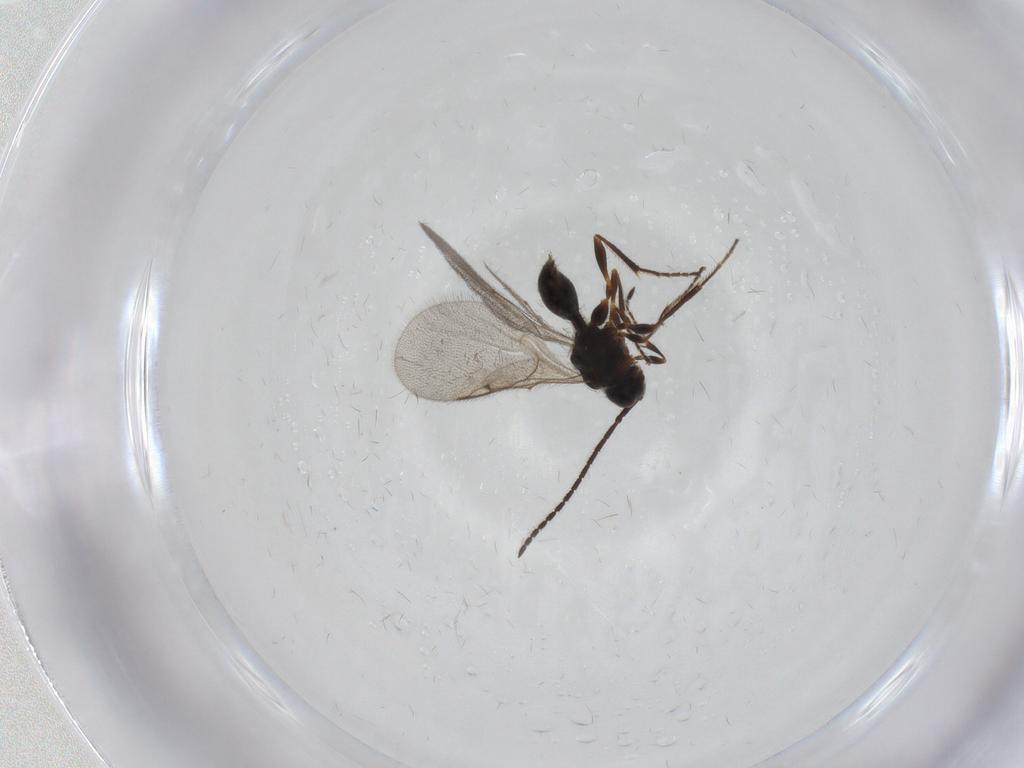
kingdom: Animalia
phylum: Arthropoda
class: Insecta
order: Hymenoptera
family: Diapriidae
